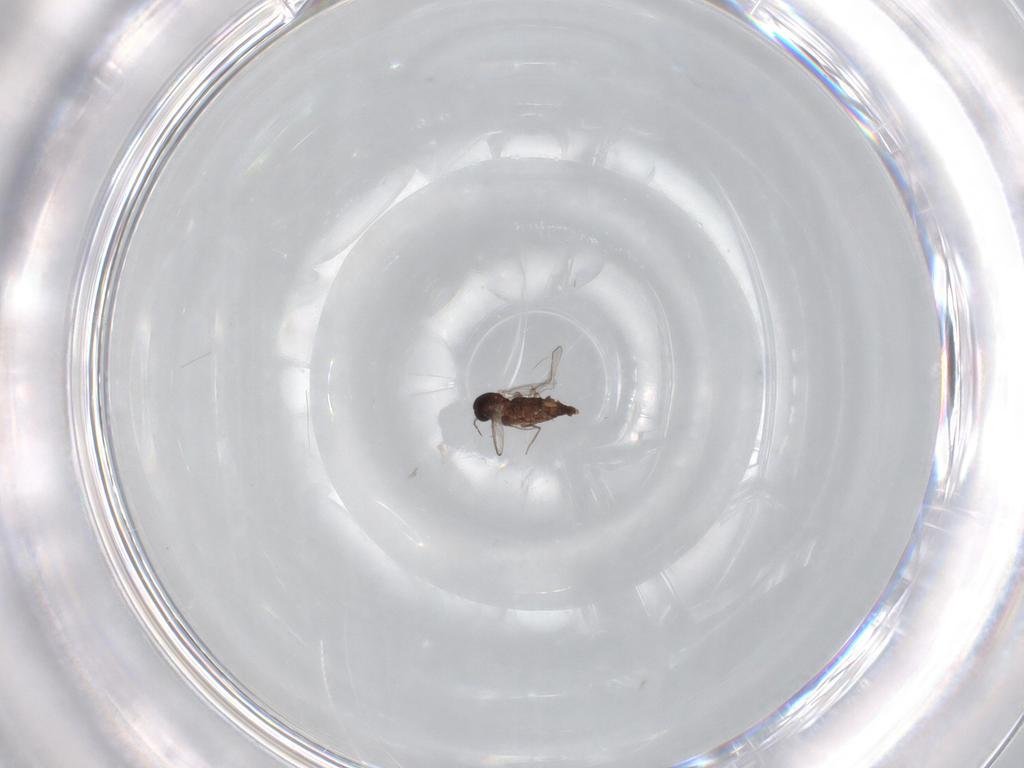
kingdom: Animalia
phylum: Arthropoda
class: Insecta
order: Diptera
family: Chironomidae
